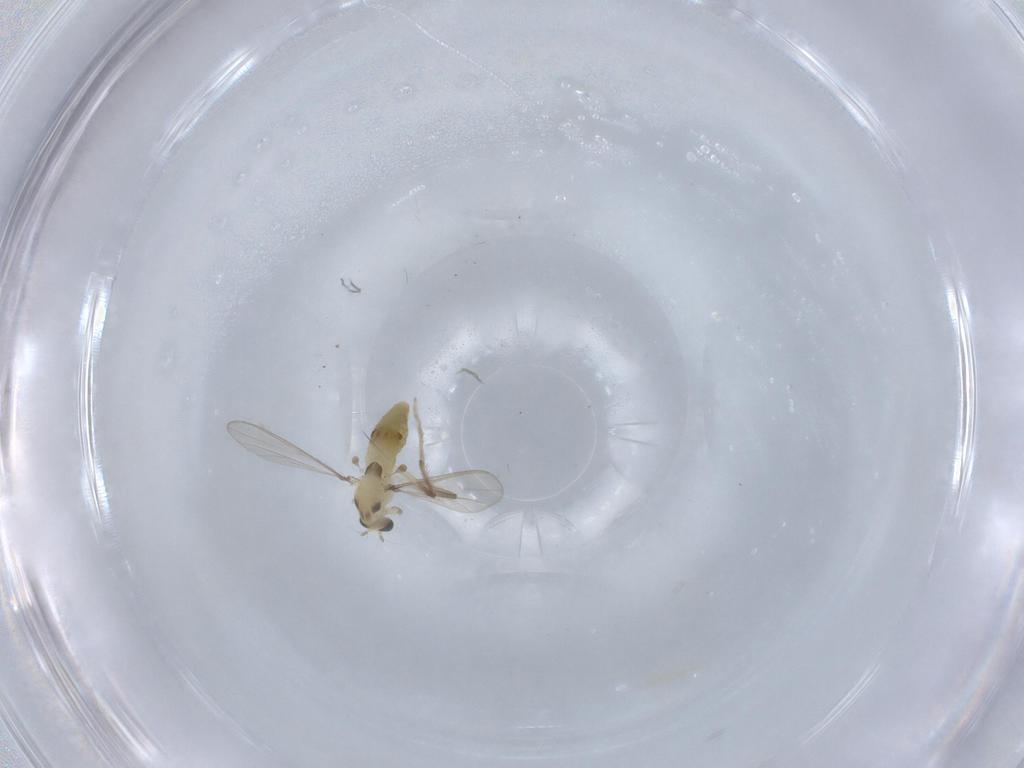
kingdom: Animalia
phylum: Arthropoda
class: Insecta
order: Diptera
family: Chironomidae
